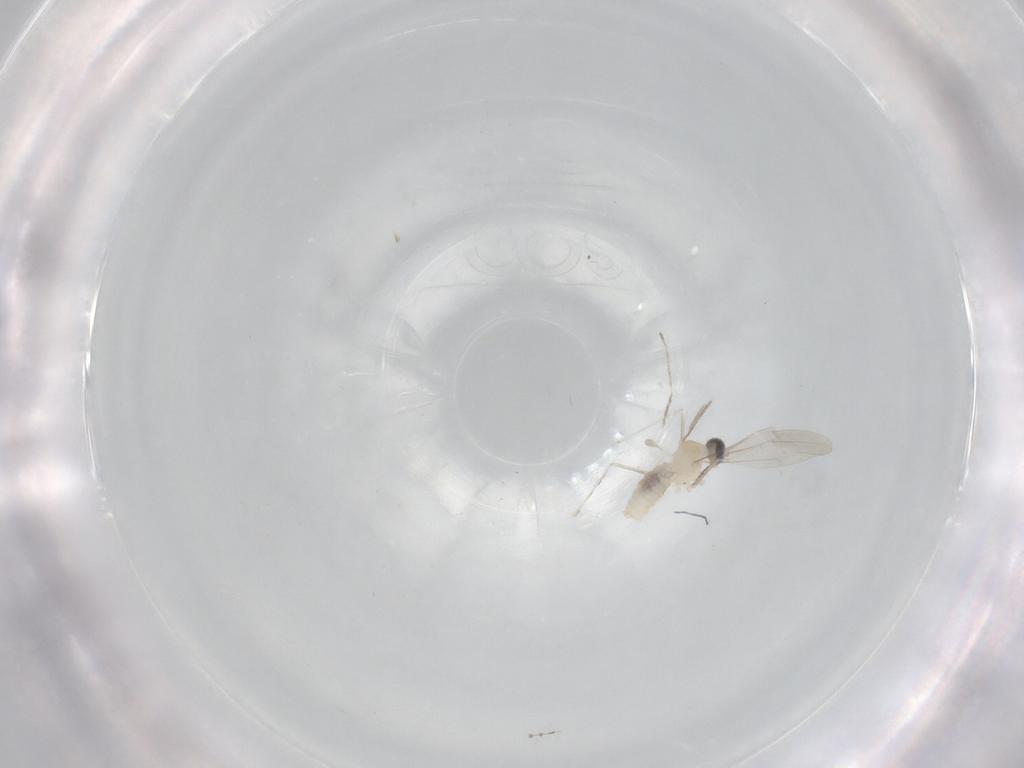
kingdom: Animalia
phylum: Arthropoda
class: Insecta
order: Diptera
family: Cecidomyiidae
